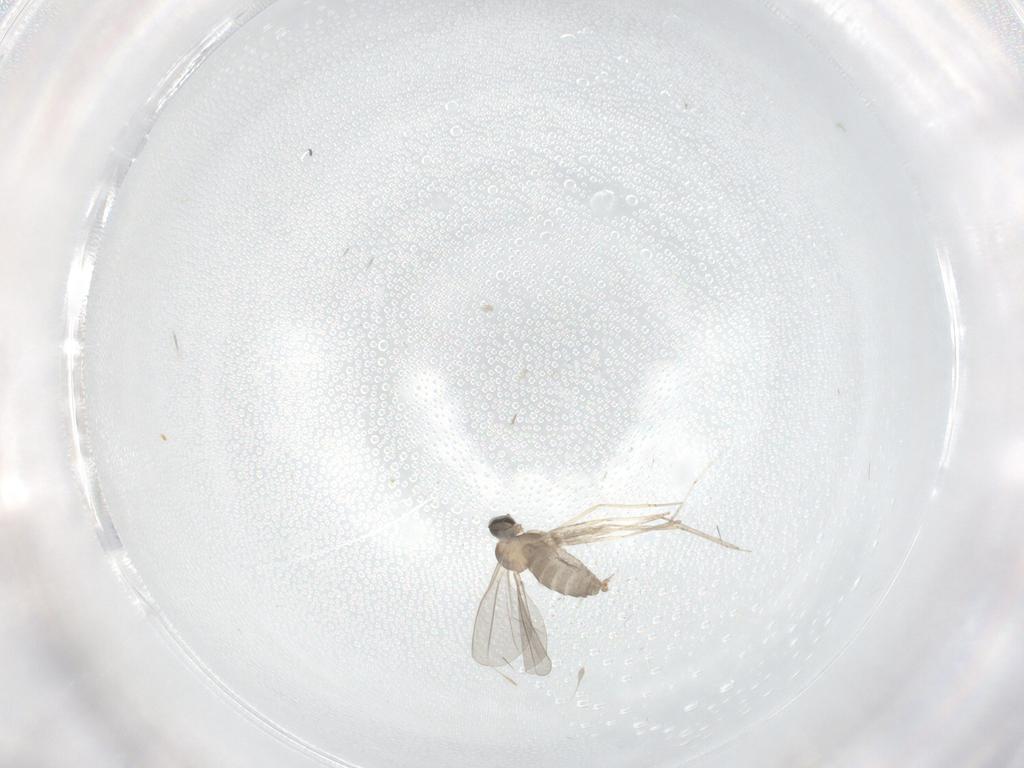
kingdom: Animalia
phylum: Arthropoda
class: Insecta
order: Diptera
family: Cecidomyiidae
